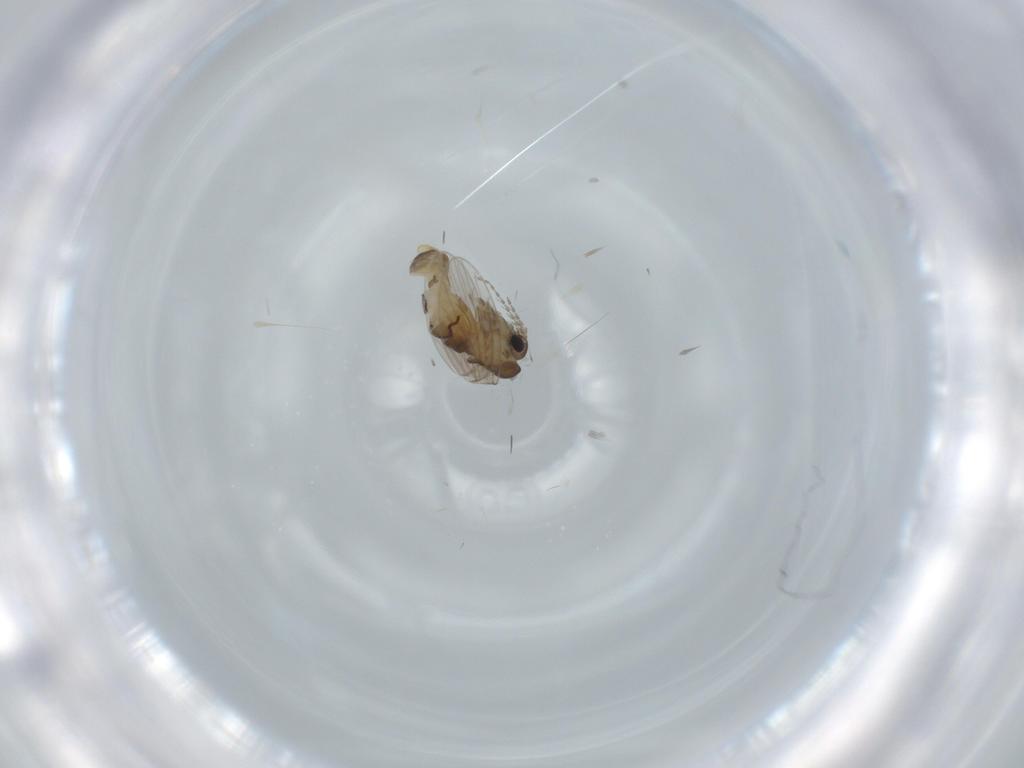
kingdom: Animalia
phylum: Arthropoda
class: Insecta
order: Diptera
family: Psychodidae
